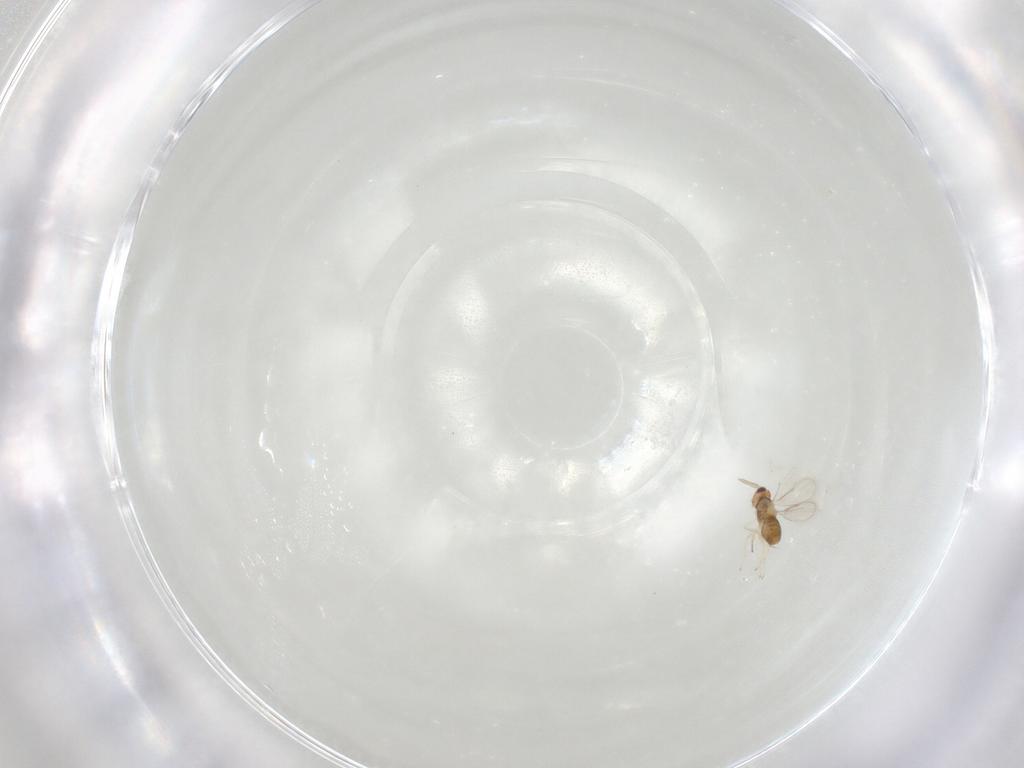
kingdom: Animalia
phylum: Arthropoda
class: Insecta
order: Hymenoptera
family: Aphelinidae
